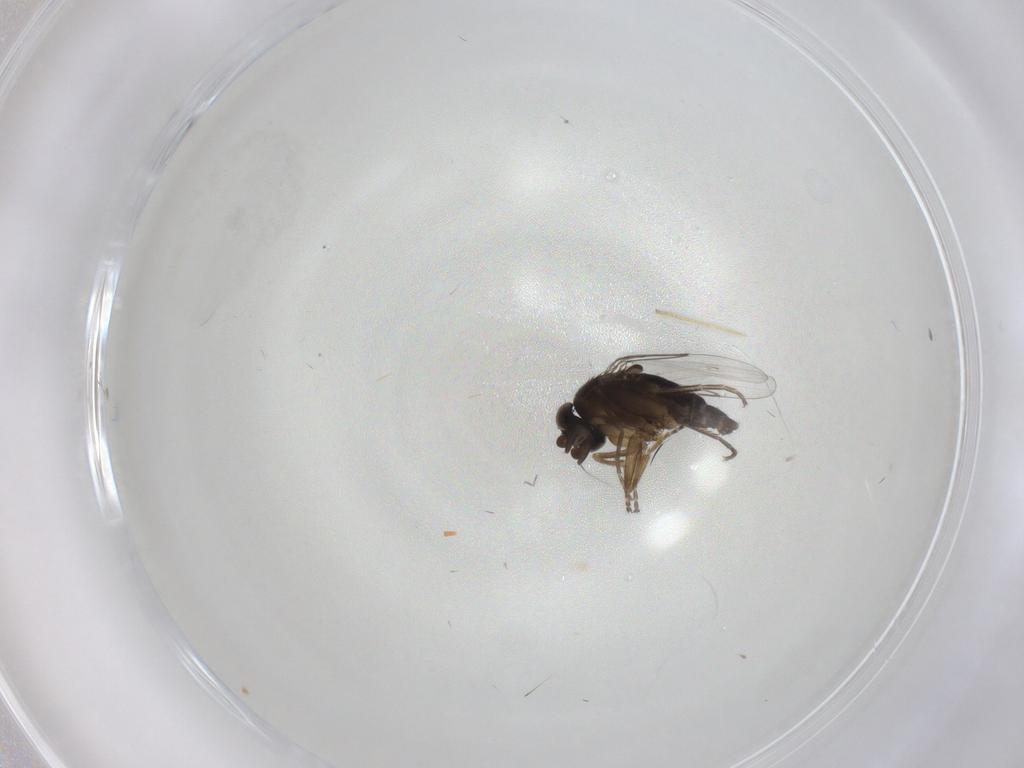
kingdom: Animalia
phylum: Arthropoda
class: Insecta
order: Diptera
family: Phoridae
